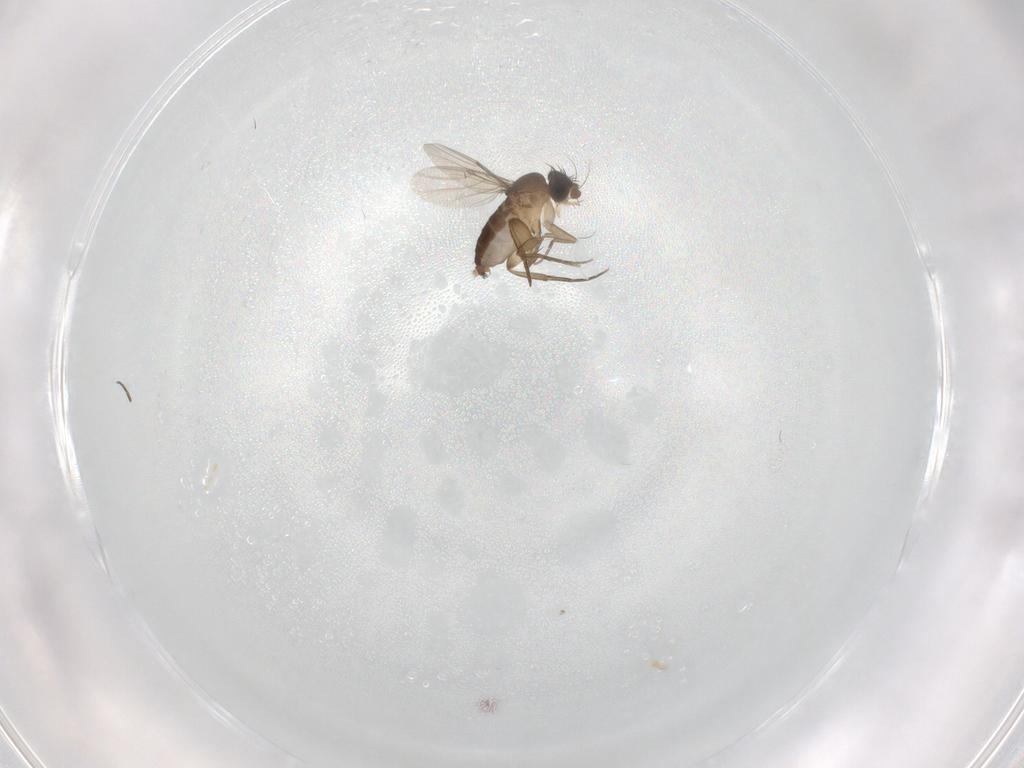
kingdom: Animalia
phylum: Arthropoda
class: Insecta
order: Diptera
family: Phoridae
